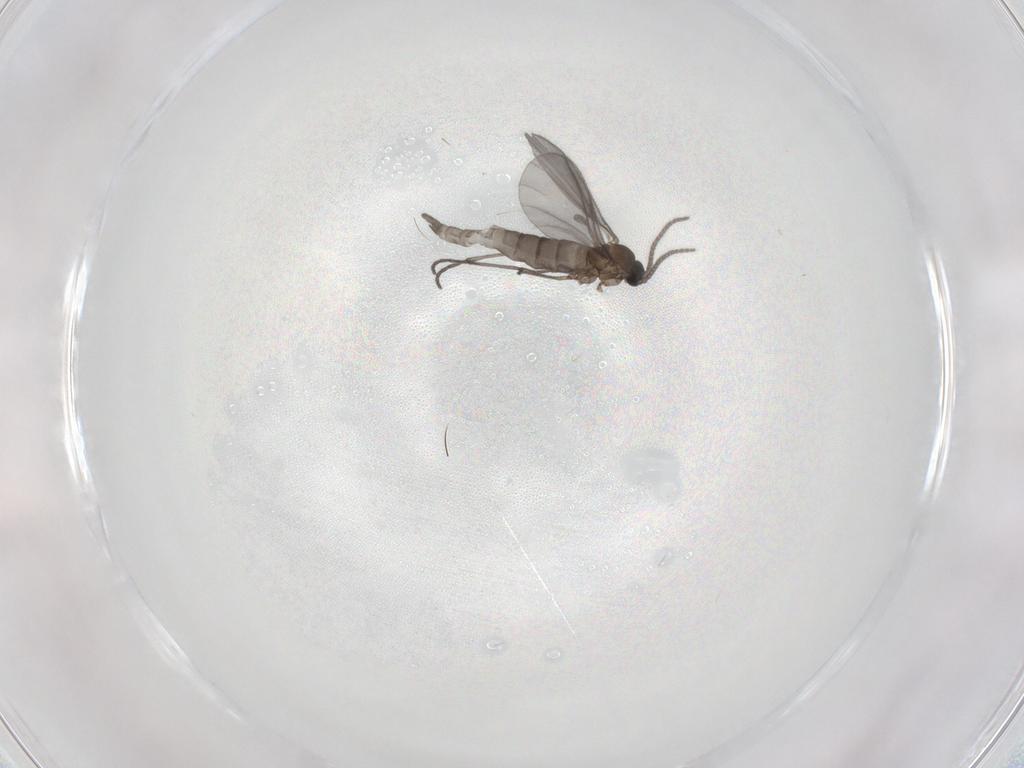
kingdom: Animalia
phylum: Arthropoda
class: Insecta
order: Diptera
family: Sciaridae
